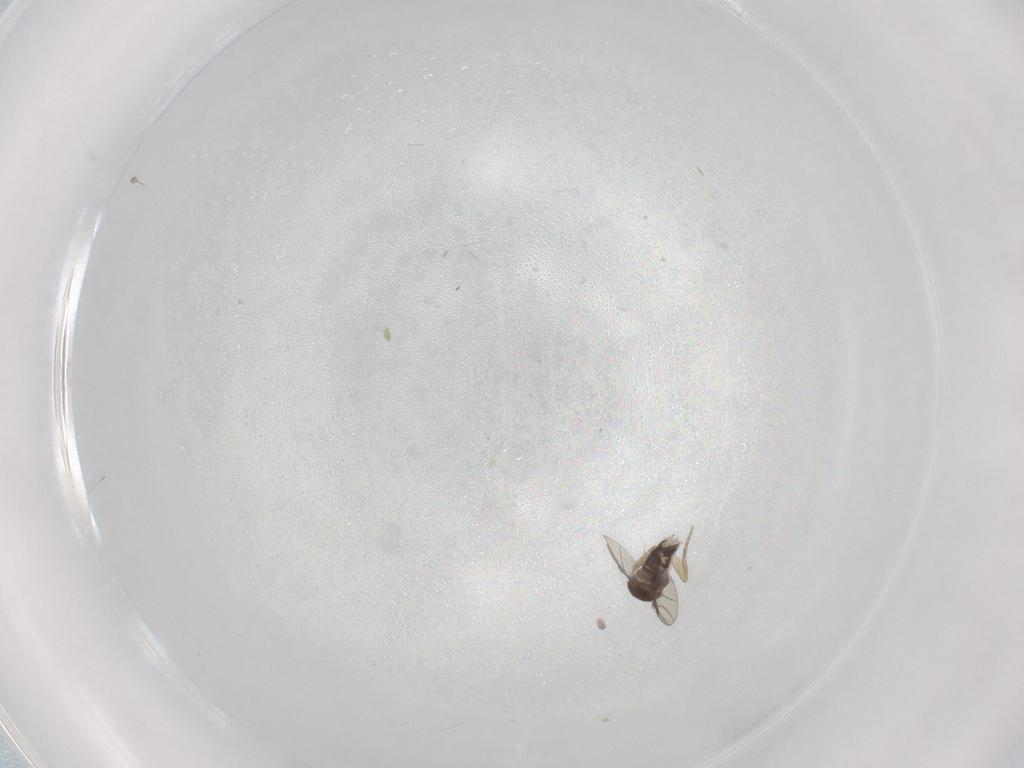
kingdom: Animalia
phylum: Arthropoda
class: Insecta
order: Diptera
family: Phoridae
